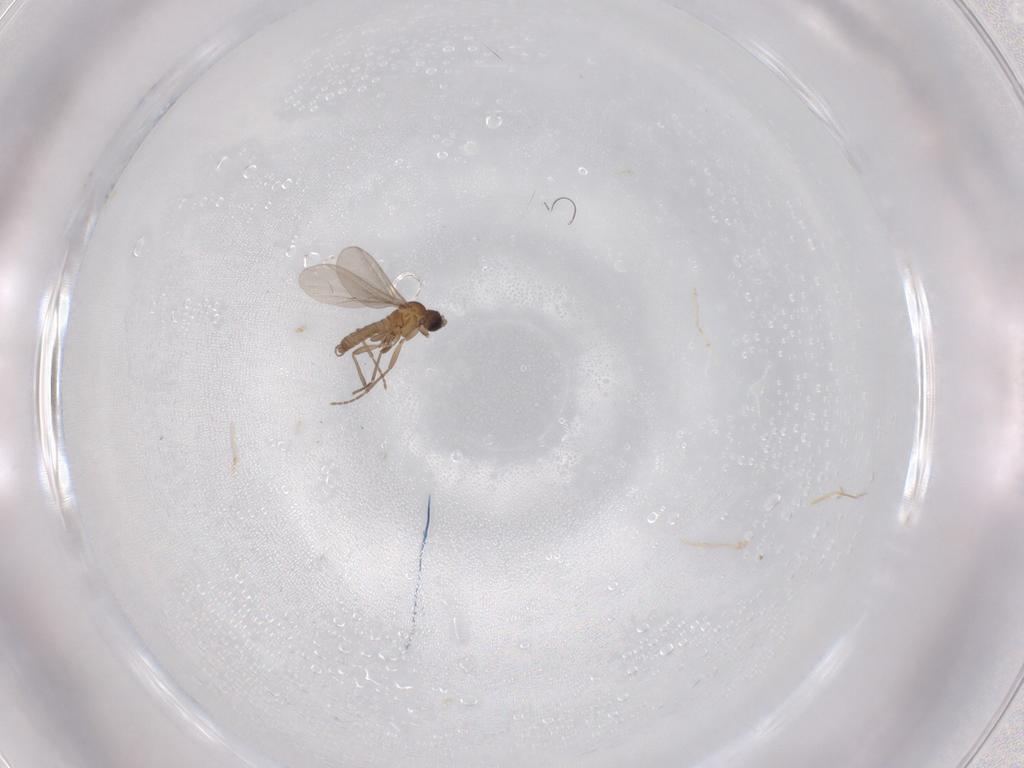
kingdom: Animalia
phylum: Arthropoda
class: Insecta
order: Diptera
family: Sciaridae
